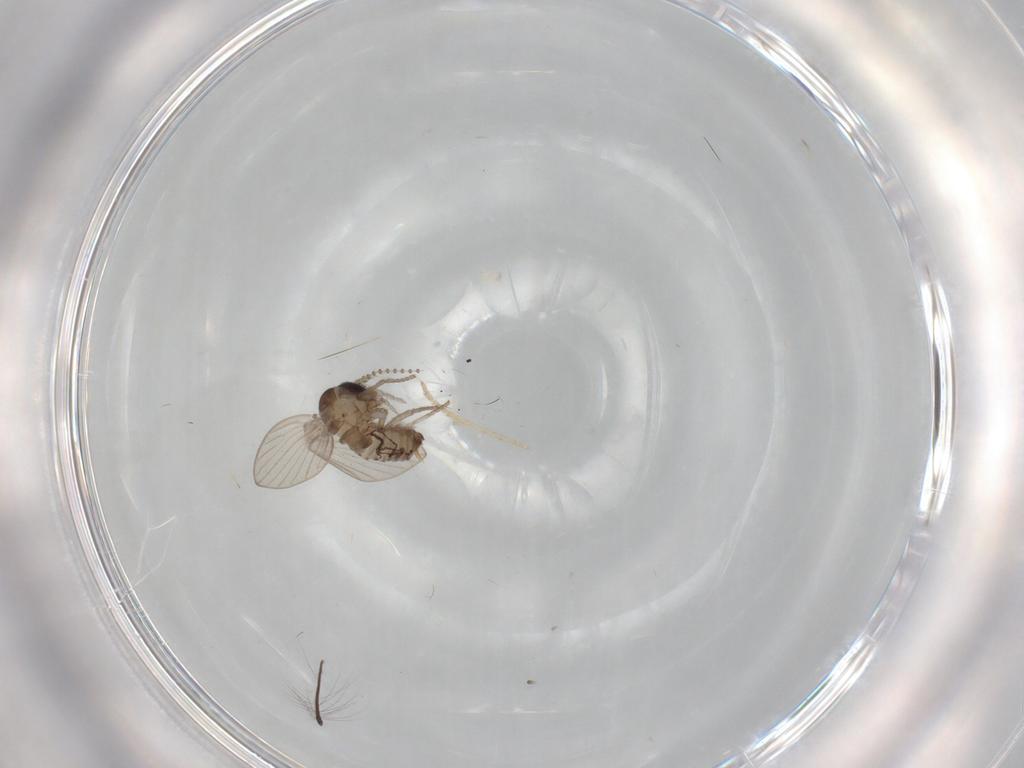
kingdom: Animalia
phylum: Arthropoda
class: Insecta
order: Diptera
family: Psychodidae
